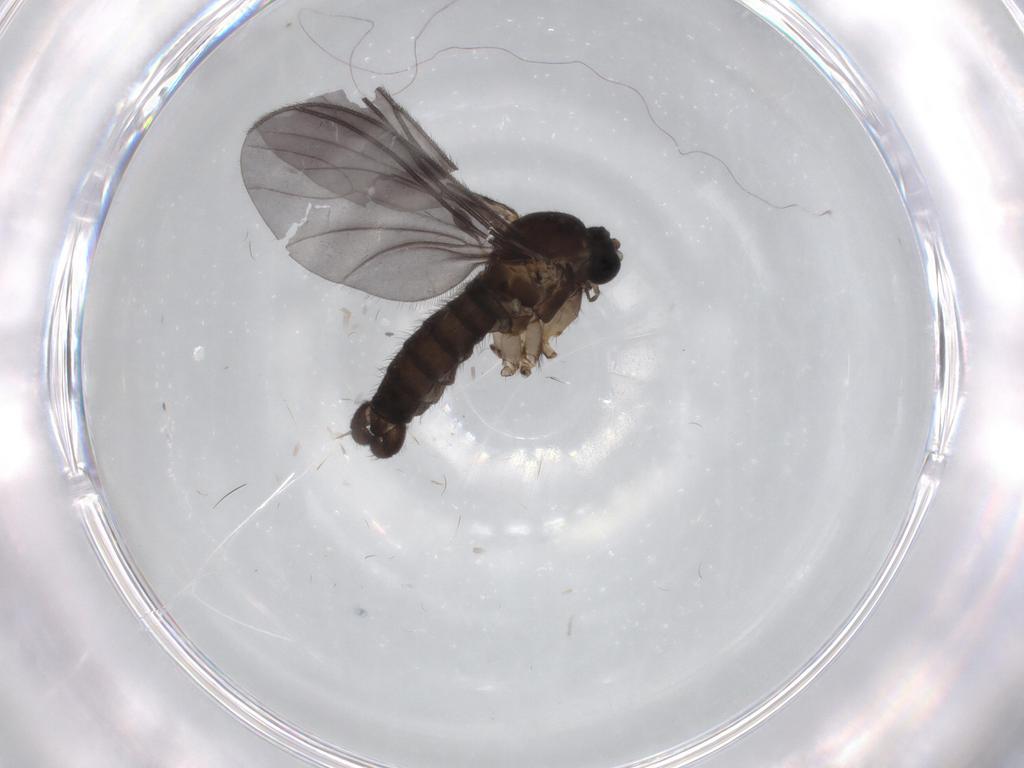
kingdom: Animalia
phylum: Arthropoda
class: Insecta
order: Diptera
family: Sciaridae
